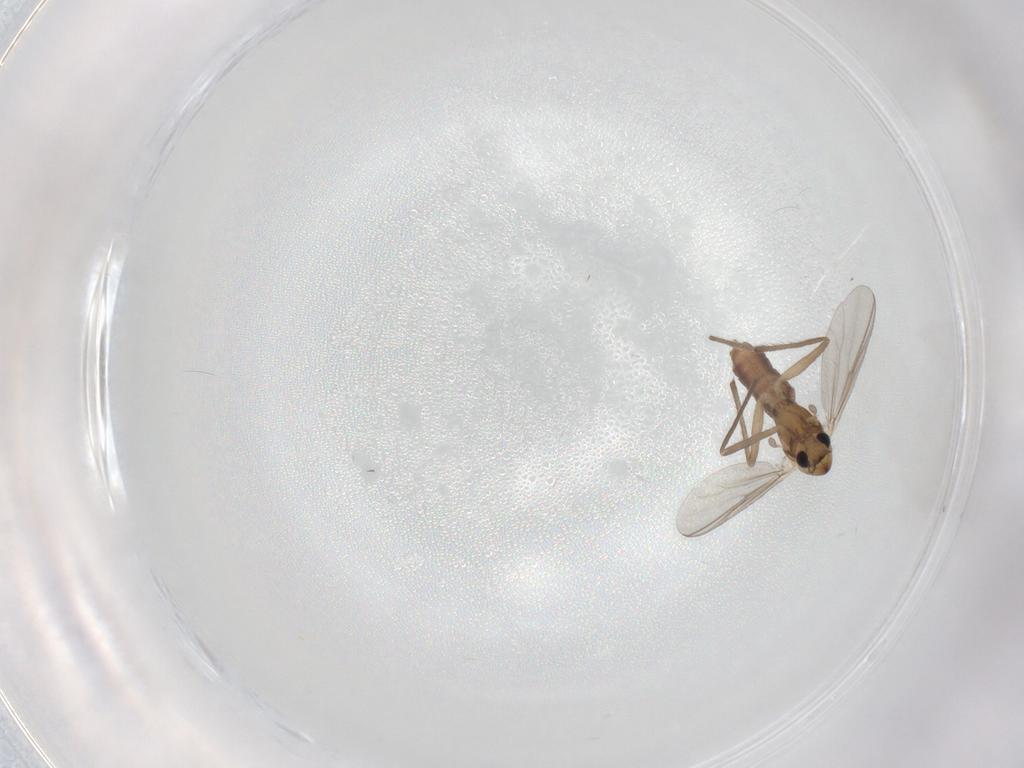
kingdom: Animalia
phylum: Arthropoda
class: Insecta
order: Diptera
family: Chironomidae
